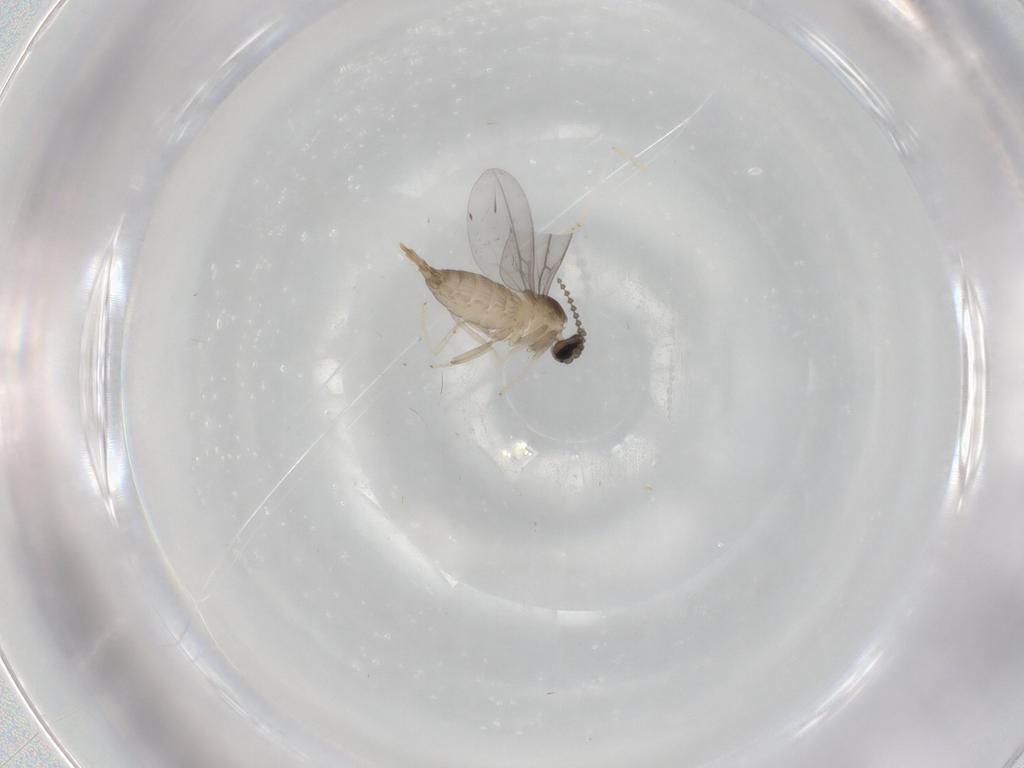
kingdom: Animalia
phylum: Arthropoda
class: Insecta
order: Diptera
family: Cecidomyiidae
